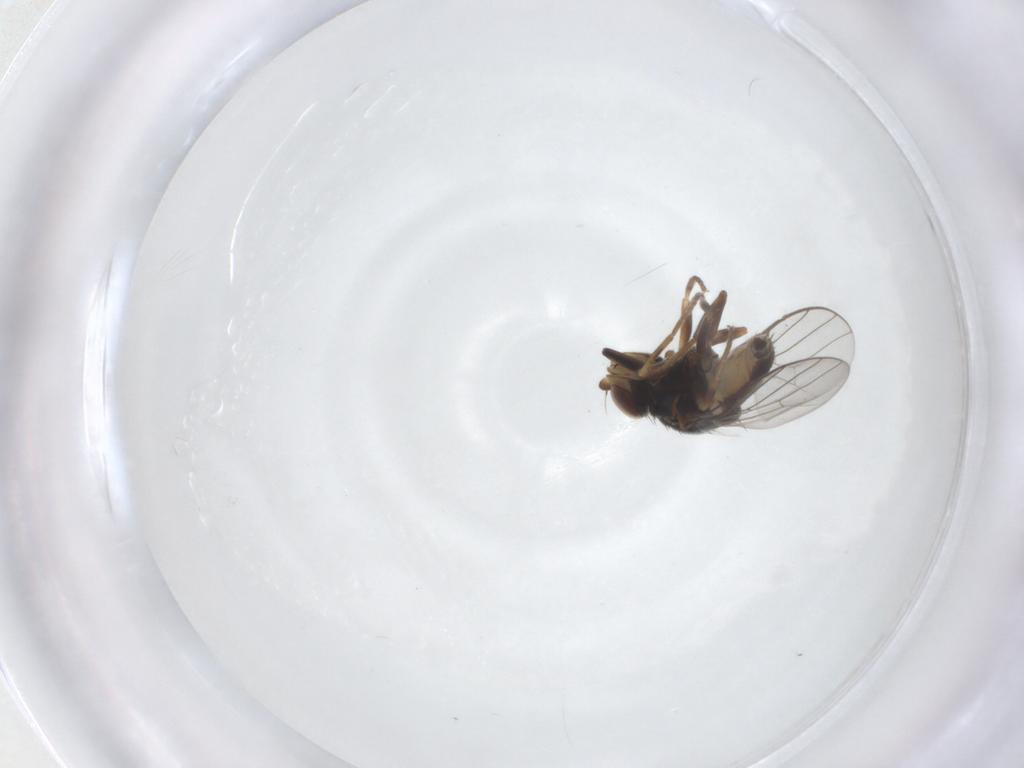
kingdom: Animalia
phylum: Arthropoda
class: Insecta
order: Diptera
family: Chloropidae
